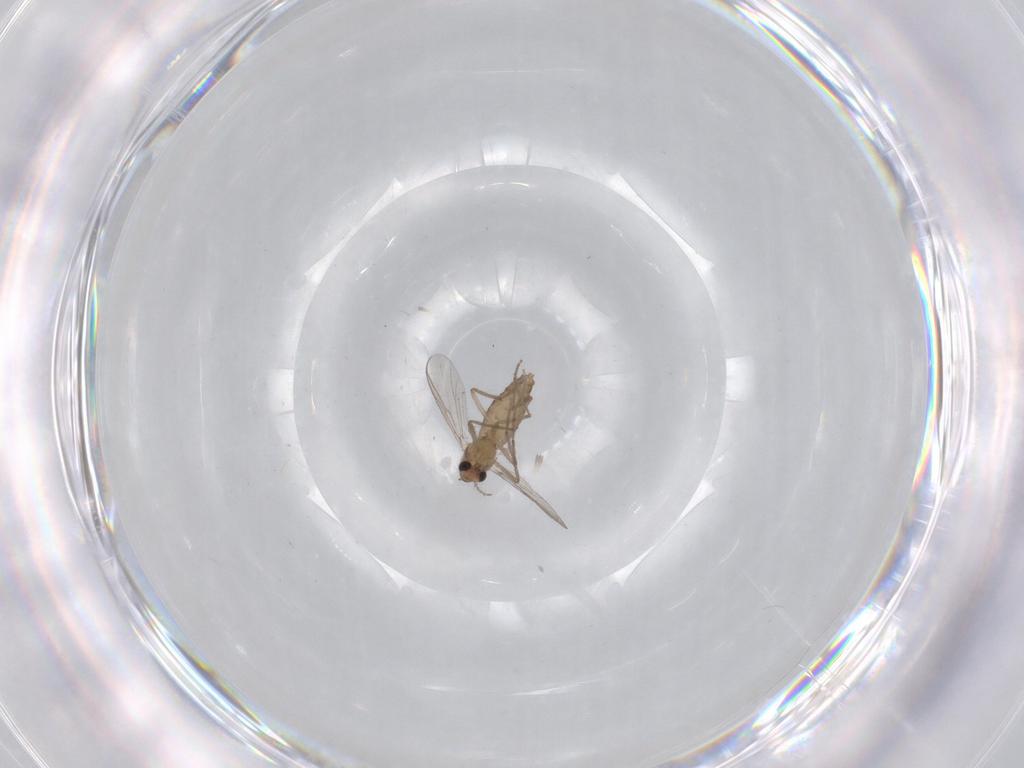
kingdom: Animalia
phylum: Arthropoda
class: Insecta
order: Diptera
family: Chironomidae
